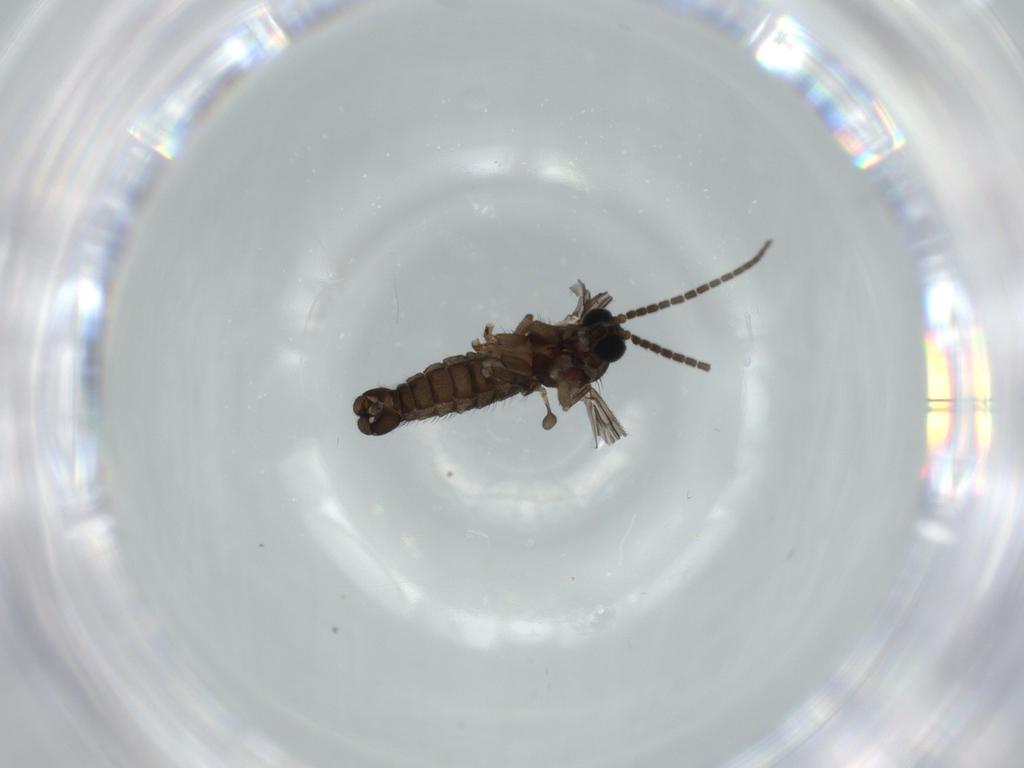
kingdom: Animalia
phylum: Arthropoda
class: Insecta
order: Diptera
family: Sciaridae
